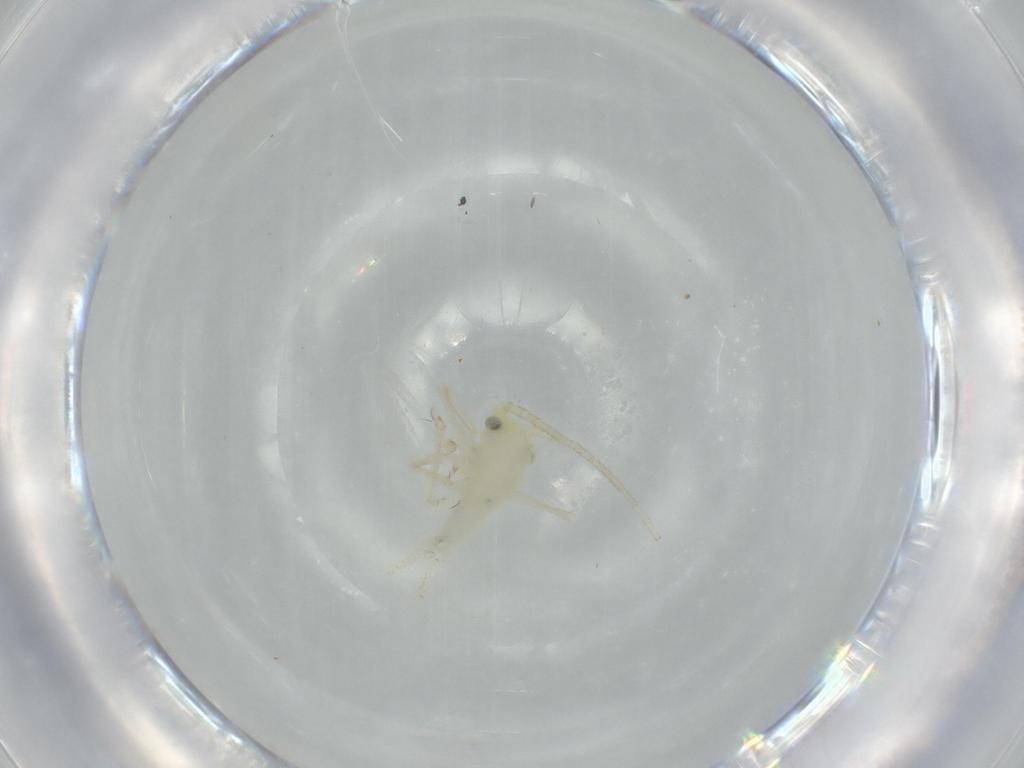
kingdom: Animalia
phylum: Arthropoda
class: Insecta
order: Orthoptera
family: Trigonidiidae
